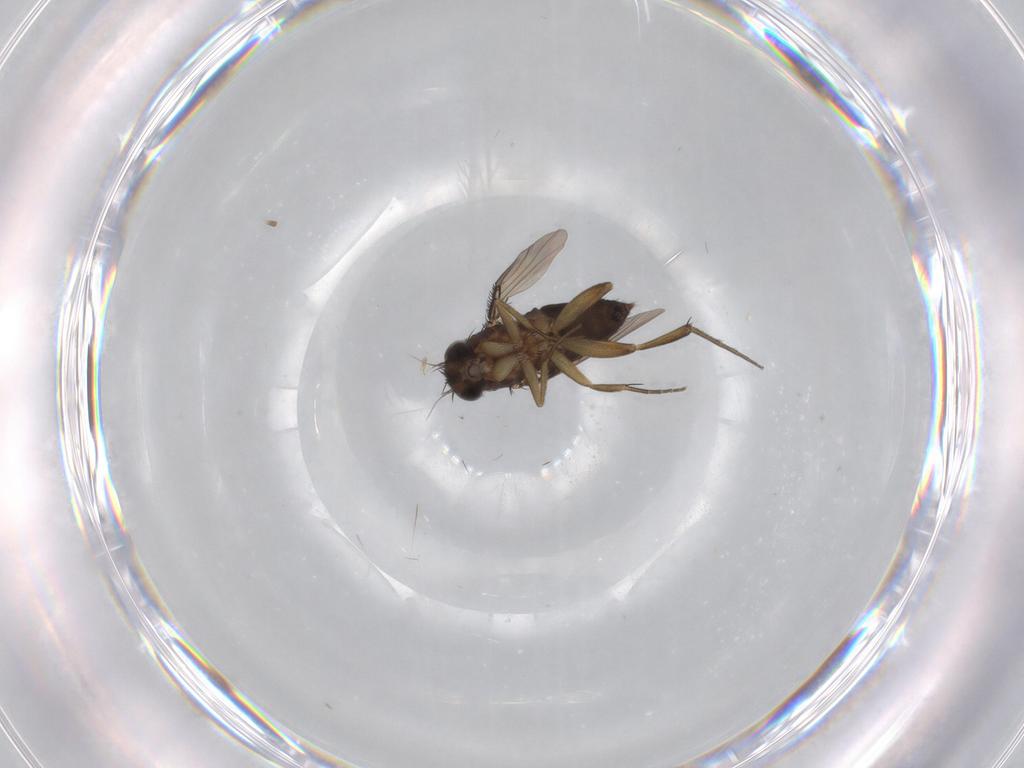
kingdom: Animalia
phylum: Arthropoda
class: Insecta
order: Diptera
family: Phoridae
